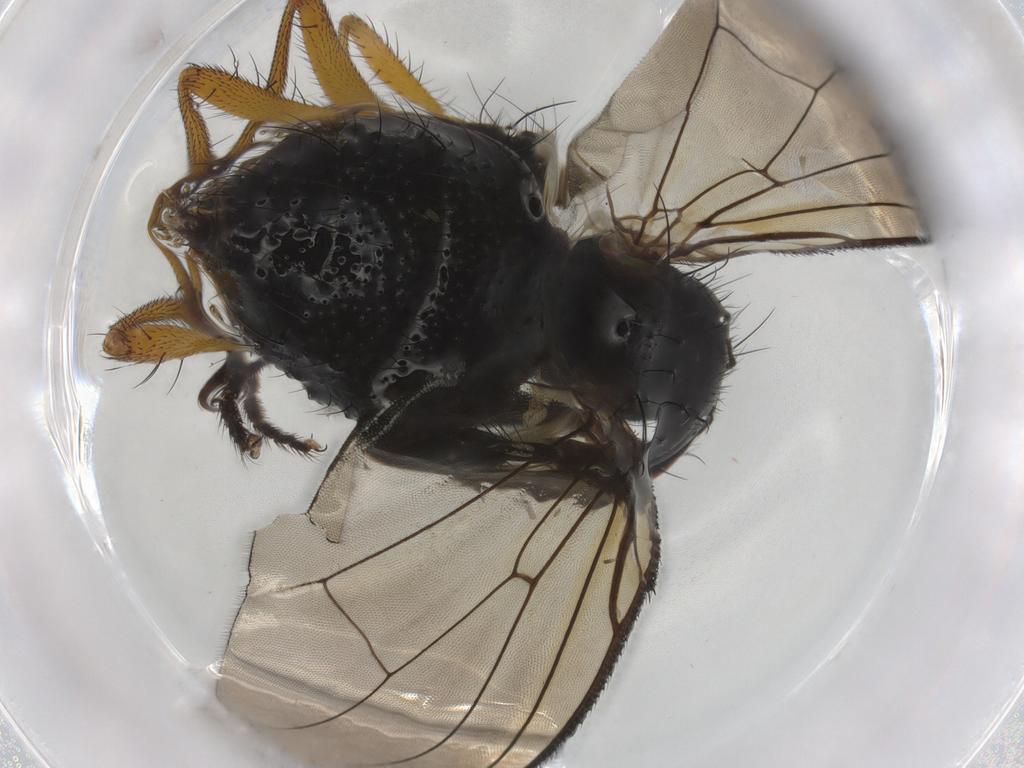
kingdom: Animalia
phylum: Arthropoda
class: Insecta
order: Diptera
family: Muscidae
